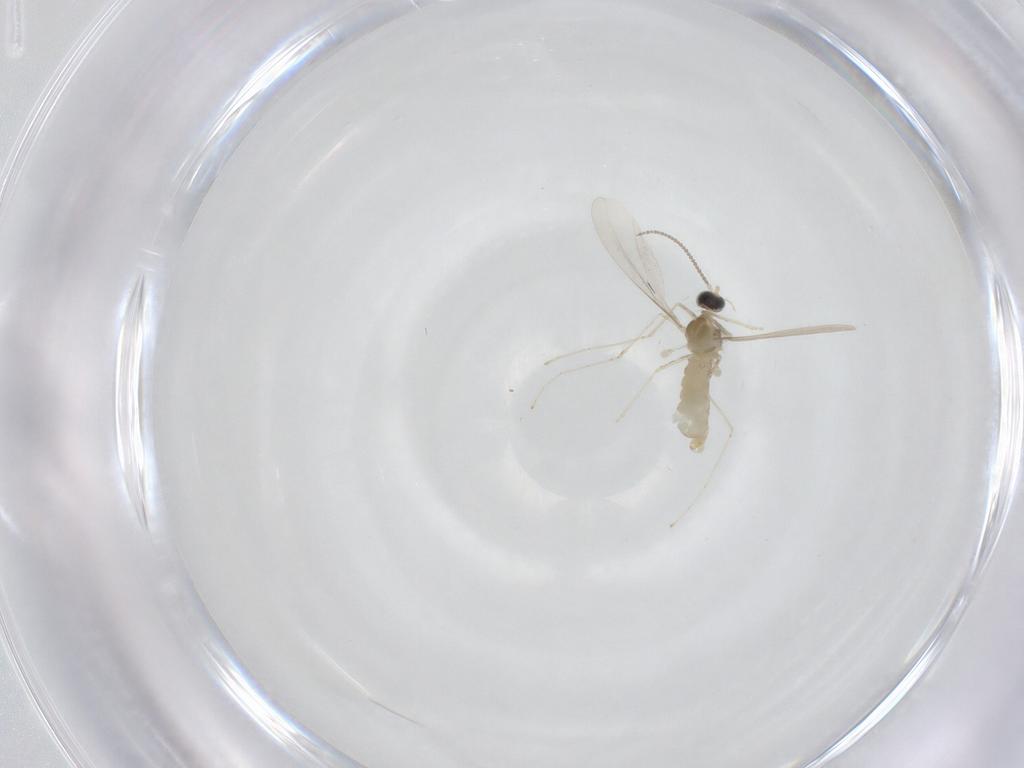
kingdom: Animalia
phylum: Arthropoda
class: Insecta
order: Diptera
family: Cecidomyiidae
